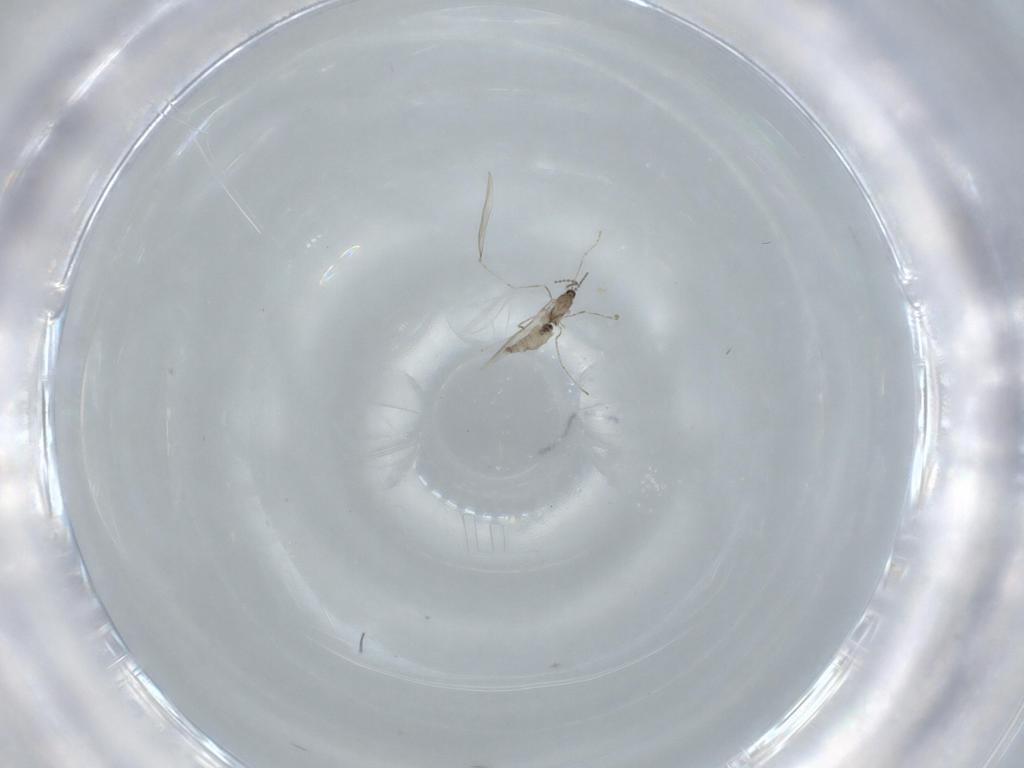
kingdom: Animalia
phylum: Arthropoda
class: Insecta
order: Diptera
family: Cecidomyiidae
